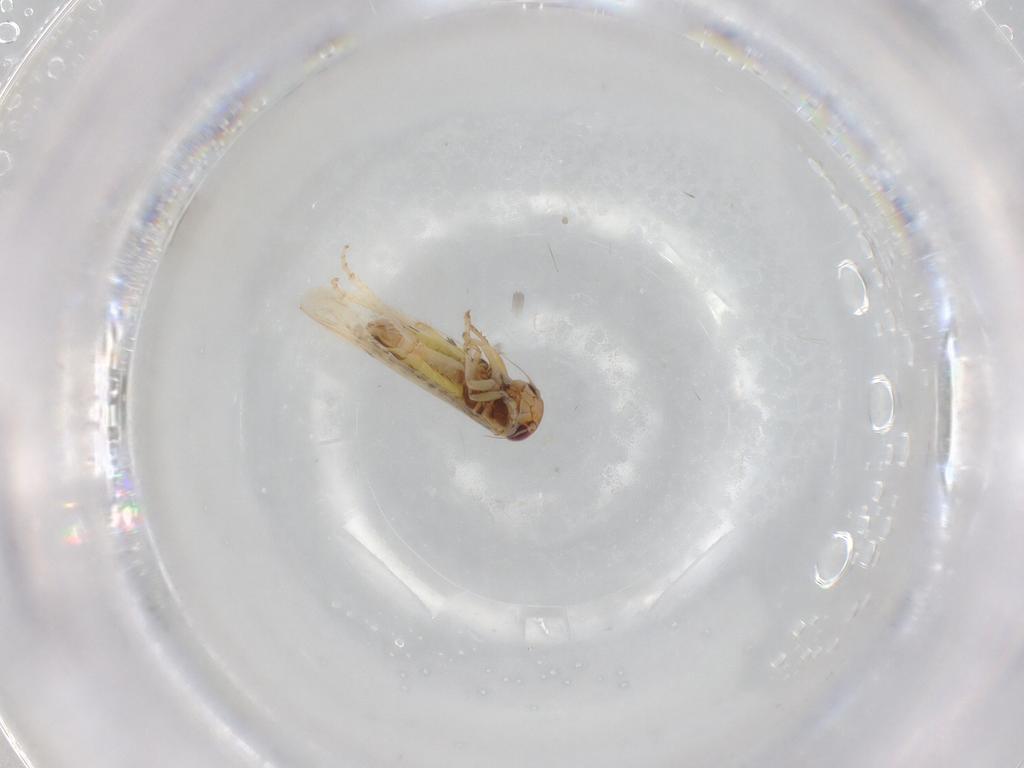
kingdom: Animalia
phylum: Arthropoda
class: Insecta
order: Hemiptera
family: Cicadellidae
